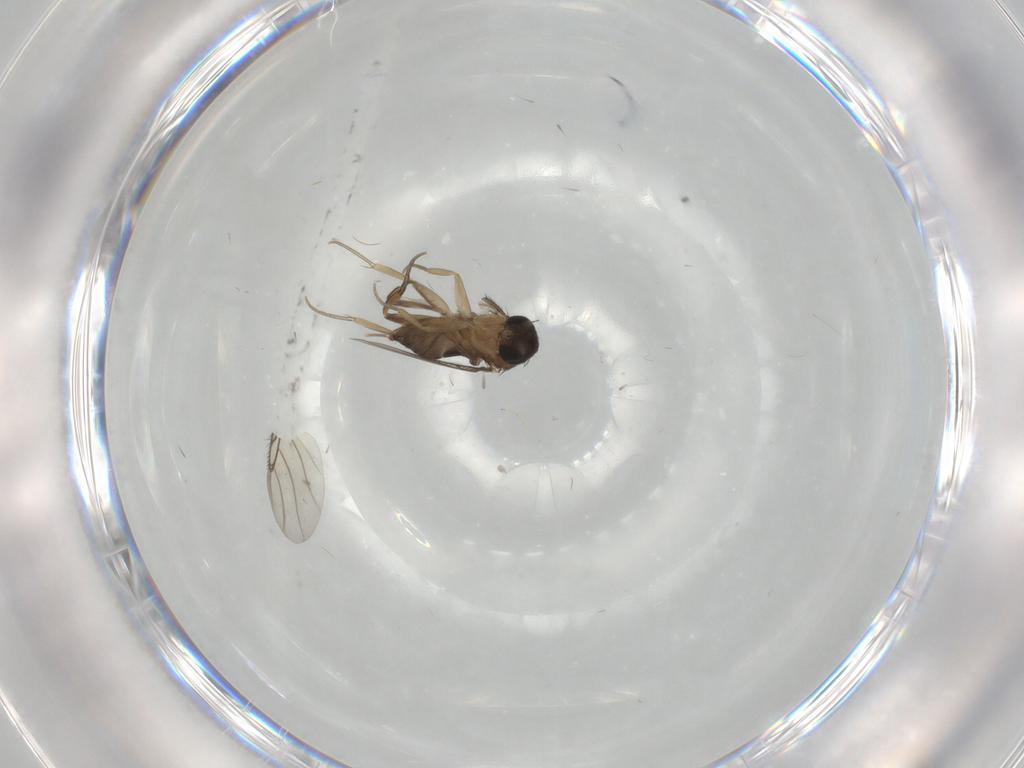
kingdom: Animalia
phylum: Arthropoda
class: Insecta
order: Diptera
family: Phoridae
